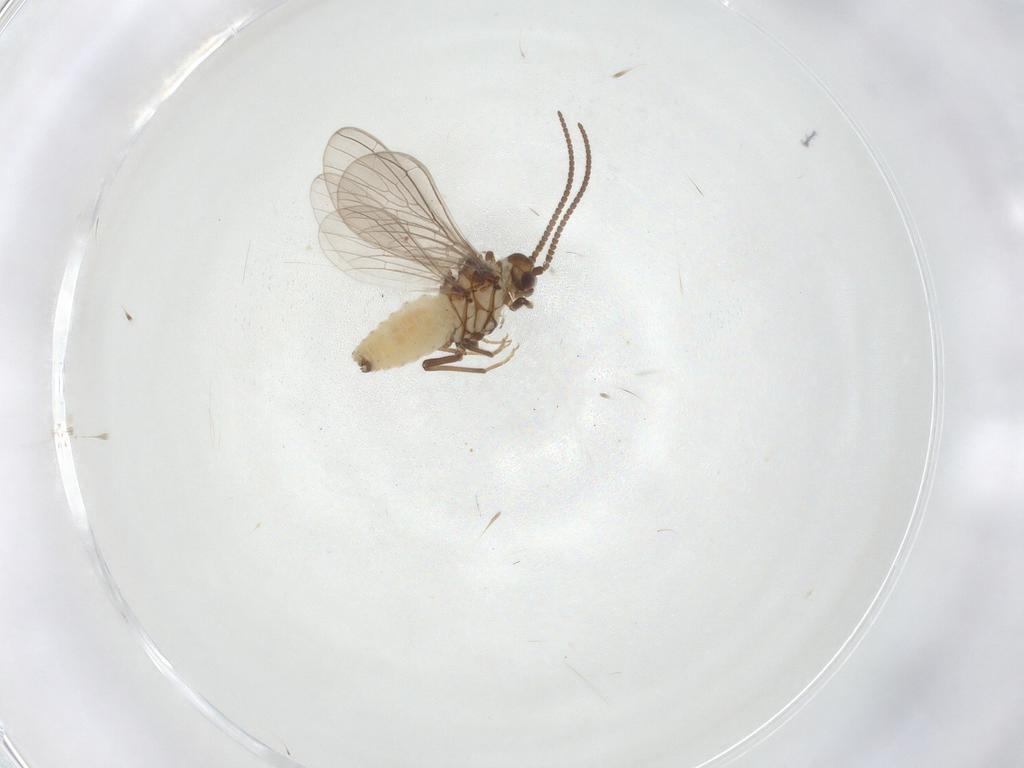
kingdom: Animalia
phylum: Arthropoda
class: Insecta
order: Neuroptera
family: Coniopterygidae
